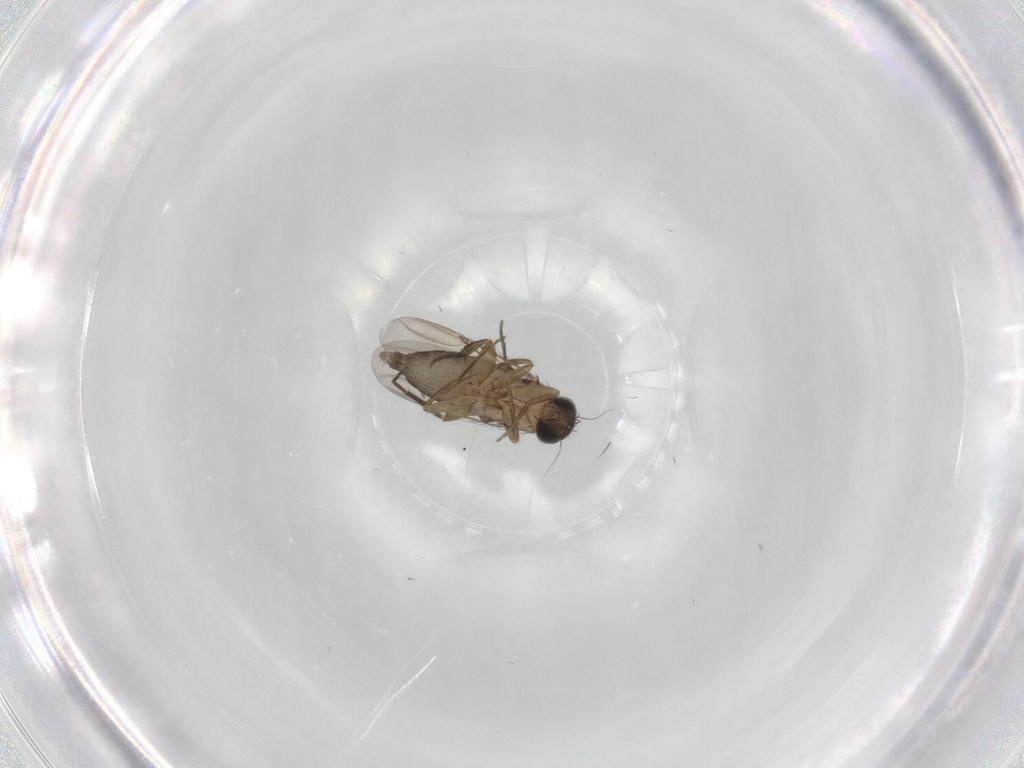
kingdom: Animalia
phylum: Arthropoda
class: Insecta
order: Diptera
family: Phoridae
